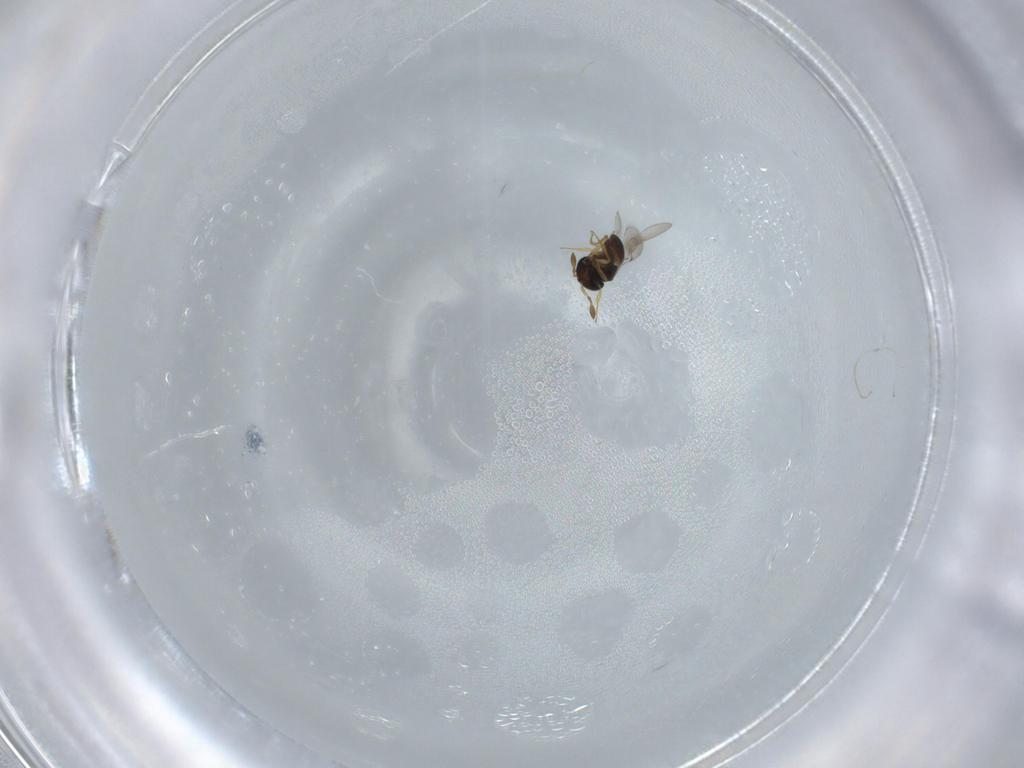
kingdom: Animalia
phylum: Arthropoda
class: Insecta
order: Hymenoptera
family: Scelionidae
